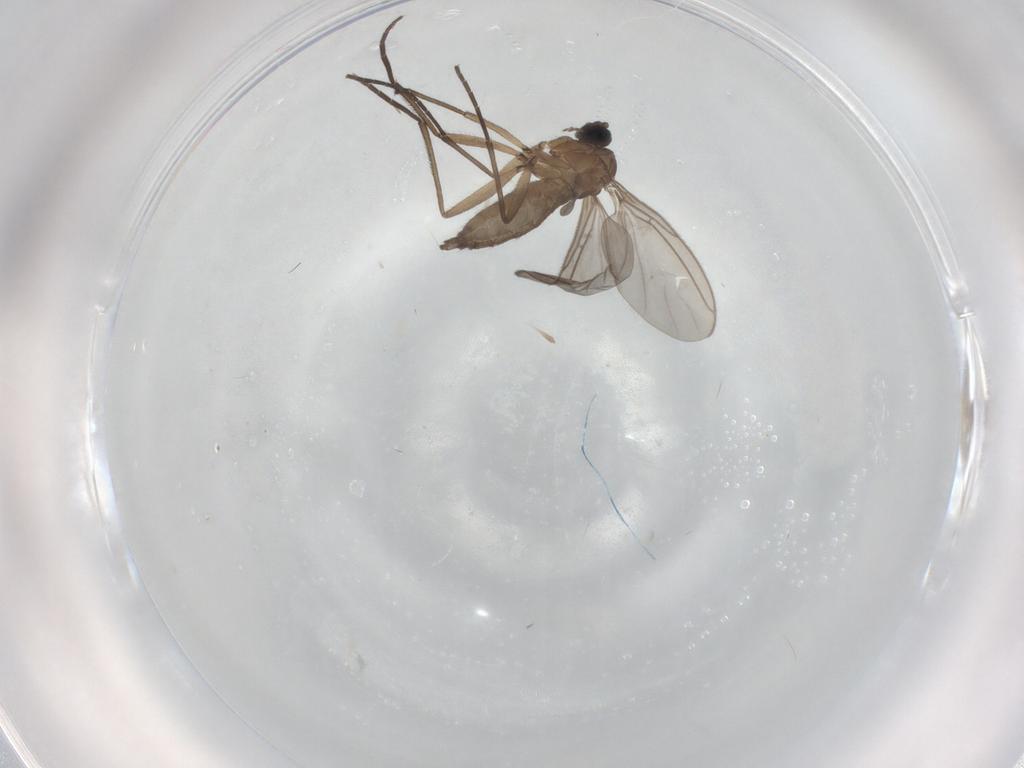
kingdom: Animalia
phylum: Arthropoda
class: Insecta
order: Diptera
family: Sciaridae
